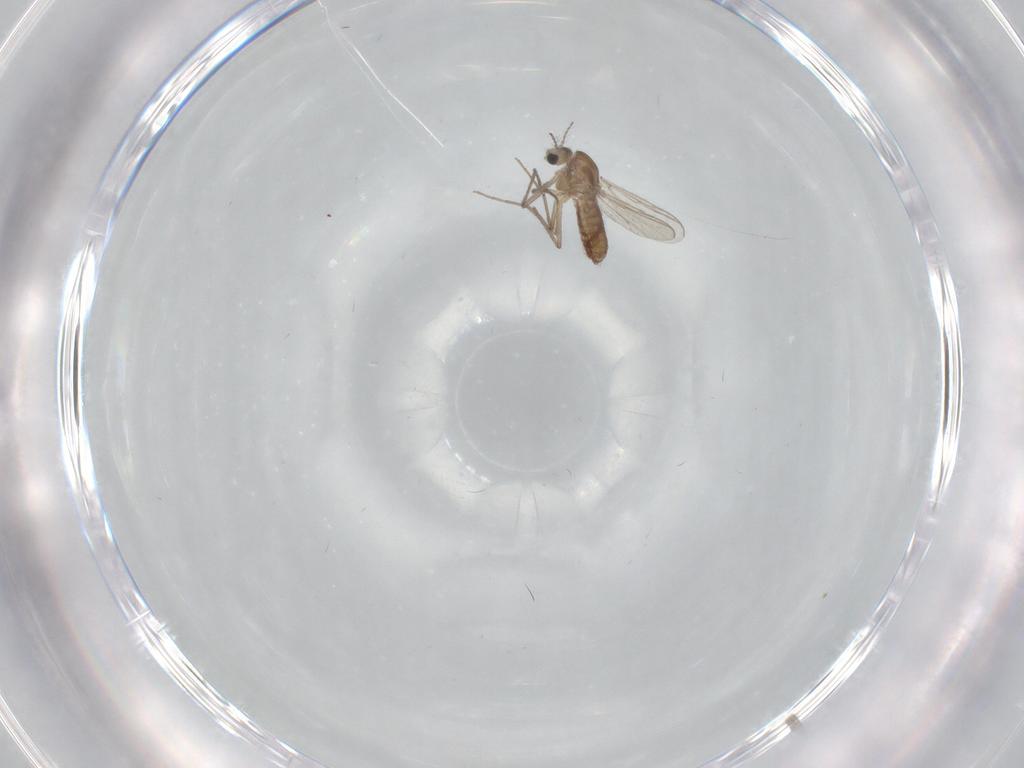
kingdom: Animalia
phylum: Arthropoda
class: Insecta
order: Diptera
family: Chironomidae
